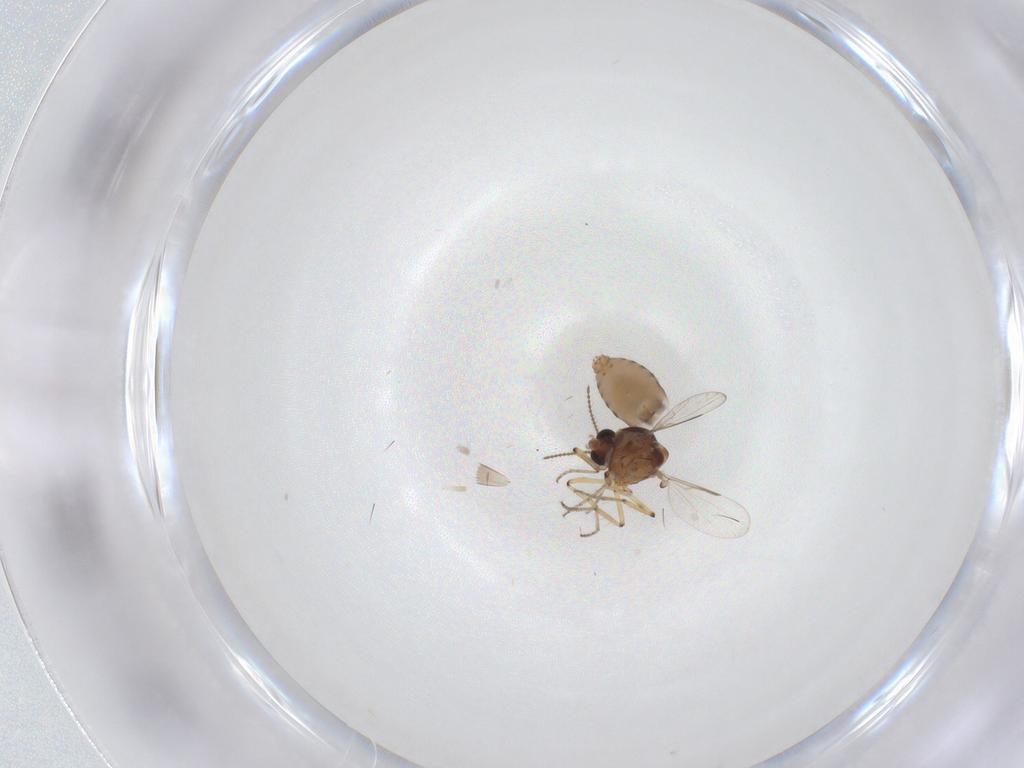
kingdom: Animalia
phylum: Arthropoda
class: Insecta
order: Diptera
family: Ceratopogonidae
